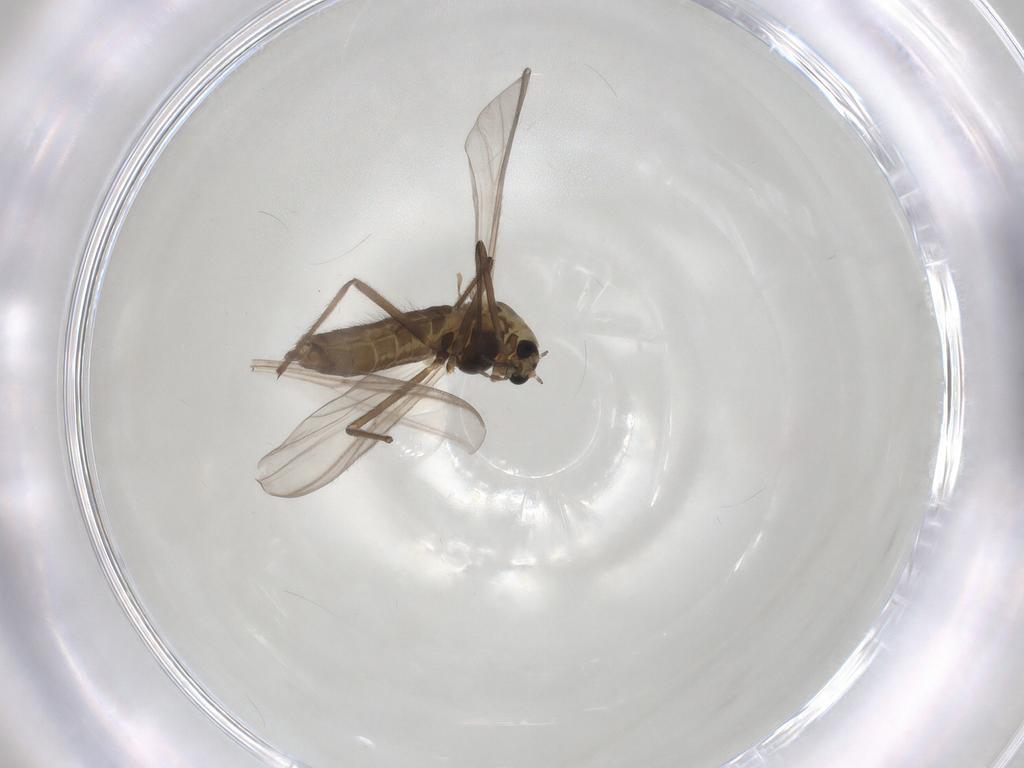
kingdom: Animalia
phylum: Arthropoda
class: Insecta
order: Diptera
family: Chironomidae
